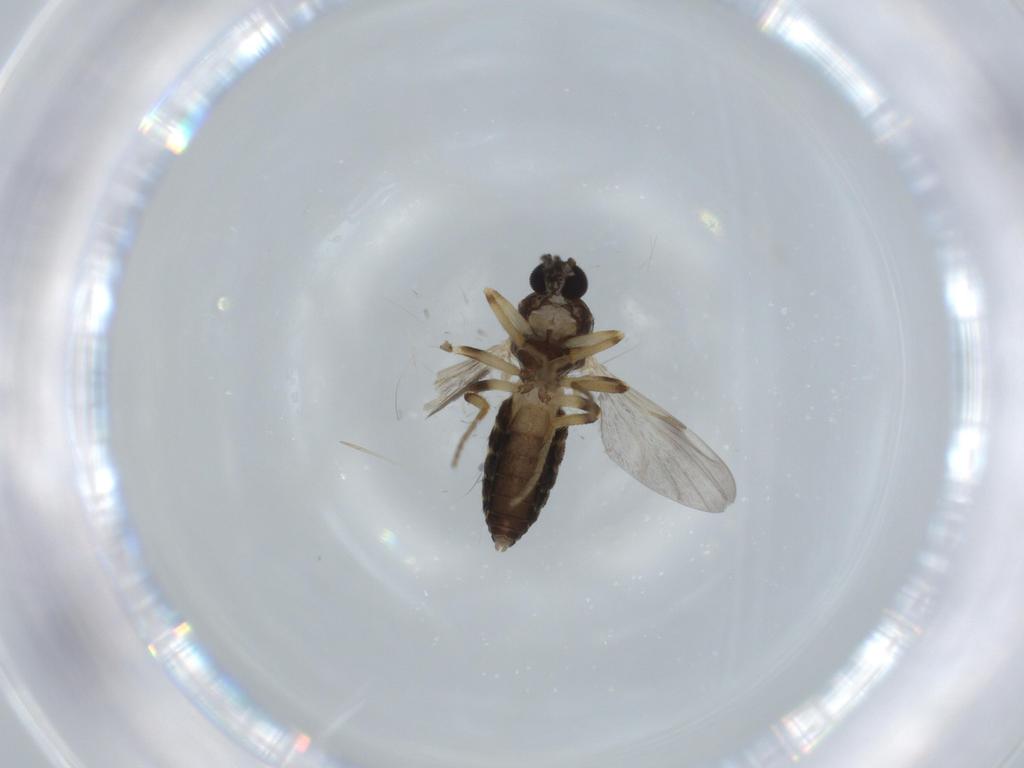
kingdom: Animalia
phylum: Arthropoda
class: Insecta
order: Diptera
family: Ceratopogonidae
